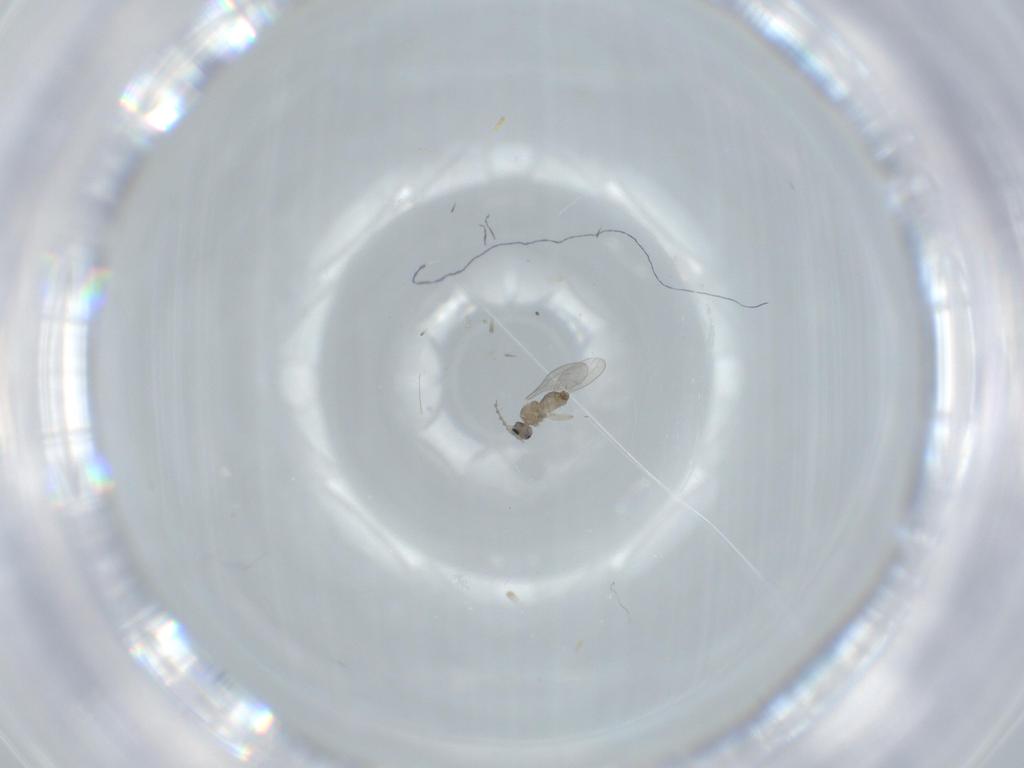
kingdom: Animalia
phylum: Arthropoda
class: Insecta
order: Diptera
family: Cecidomyiidae
